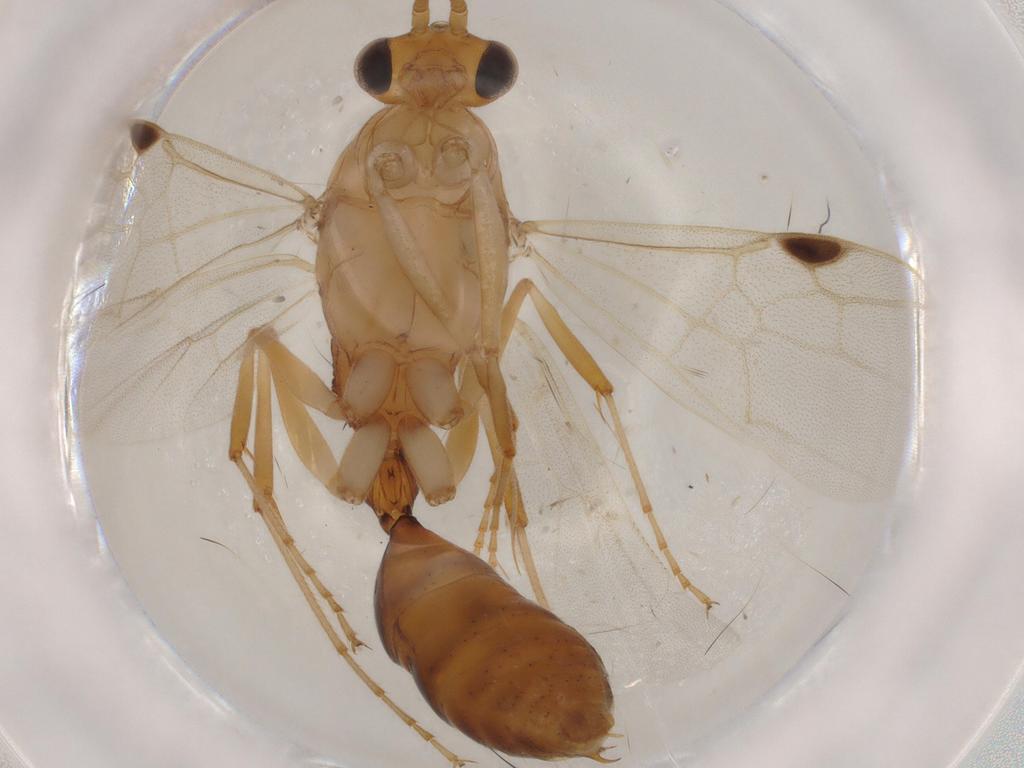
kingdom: Animalia
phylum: Arthropoda
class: Insecta
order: Hymenoptera
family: Formicidae
